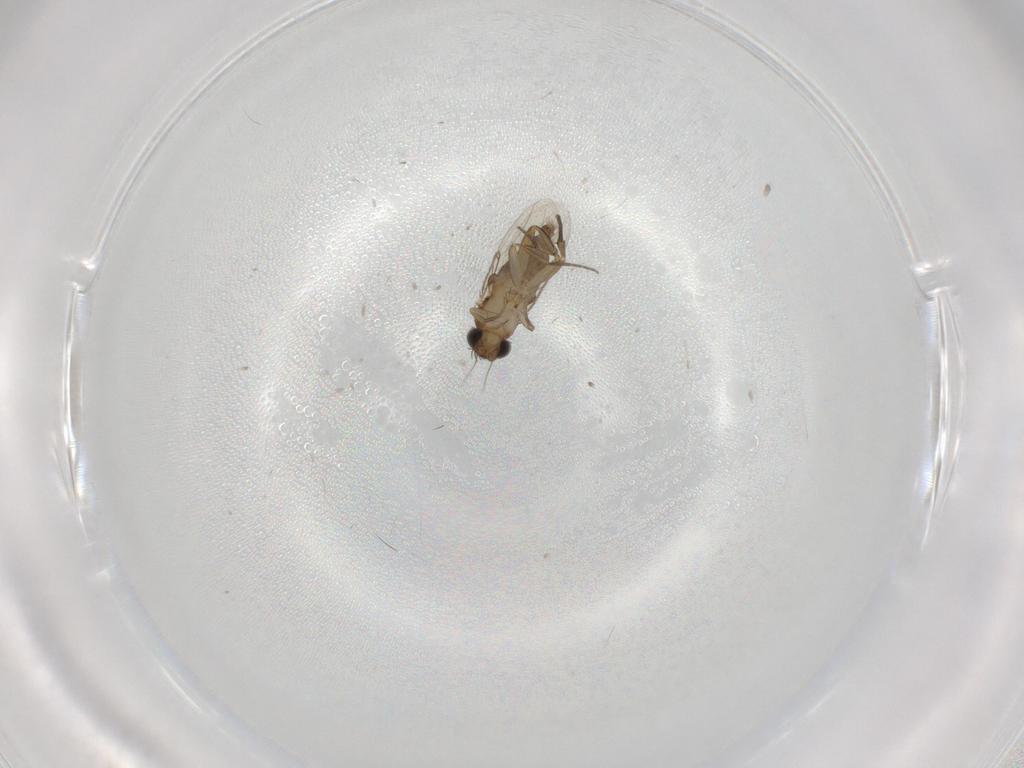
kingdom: Animalia
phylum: Arthropoda
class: Insecta
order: Diptera
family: Phoridae
